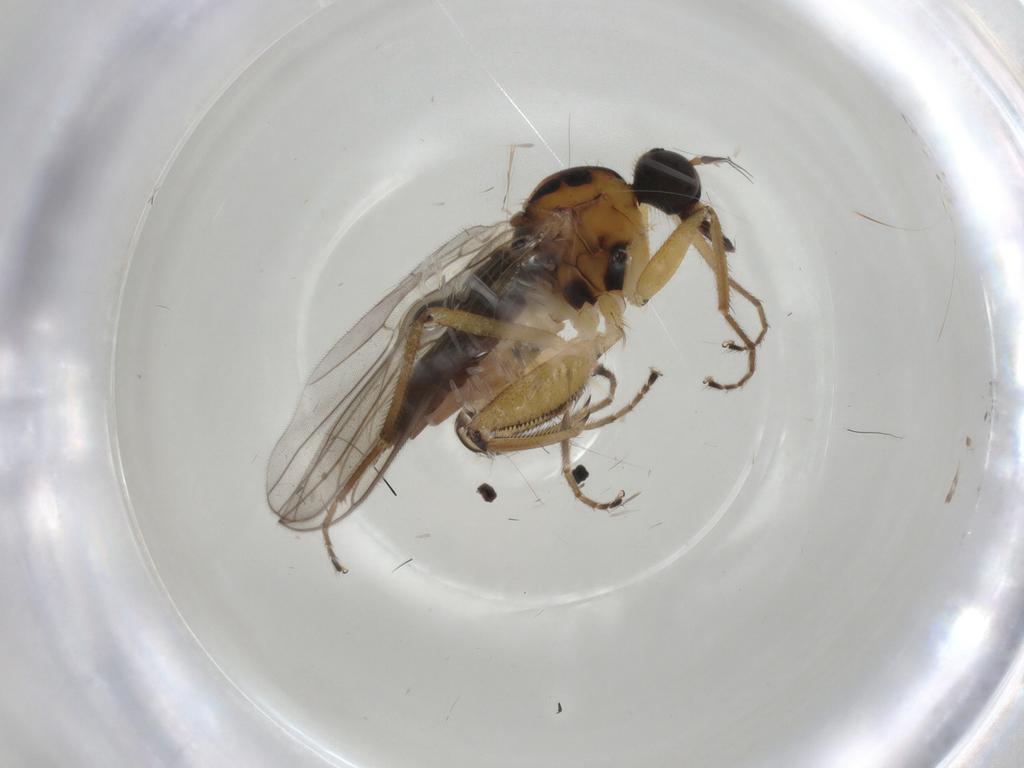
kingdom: Animalia
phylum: Arthropoda
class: Insecta
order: Diptera
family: Hybotidae
